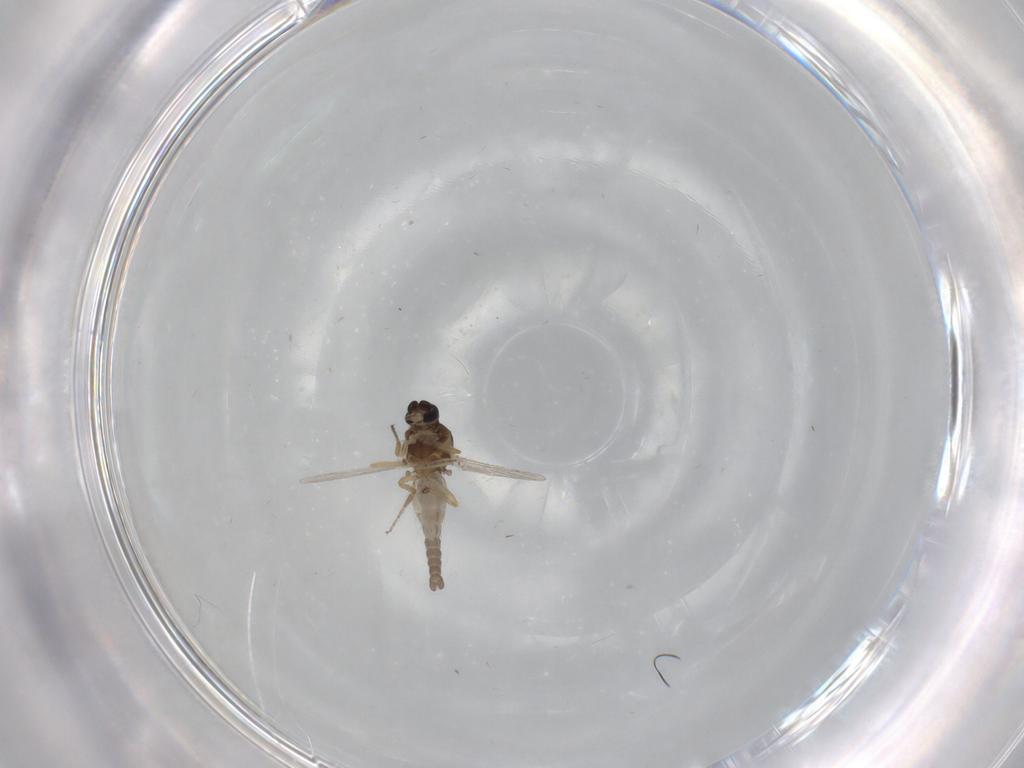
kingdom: Animalia
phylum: Arthropoda
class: Insecta
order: Diptera
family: Ceratopogonidae
